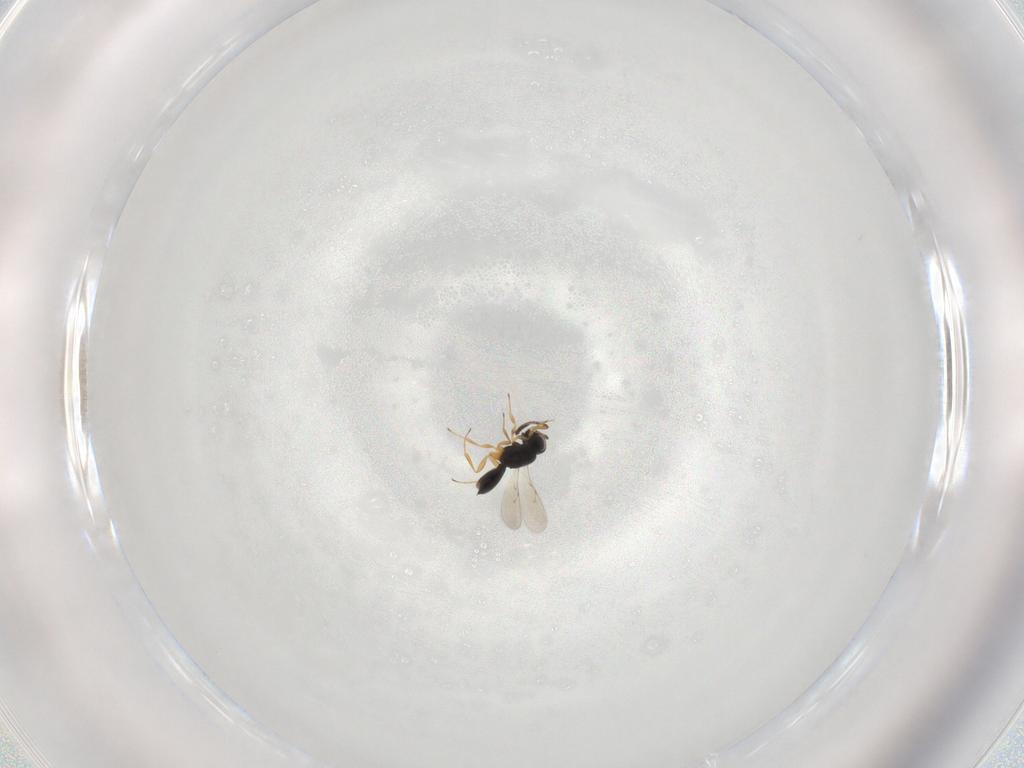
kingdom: Animalia
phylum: Arthropoda
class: Insecta
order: Hymenoptera
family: Scelionidae
